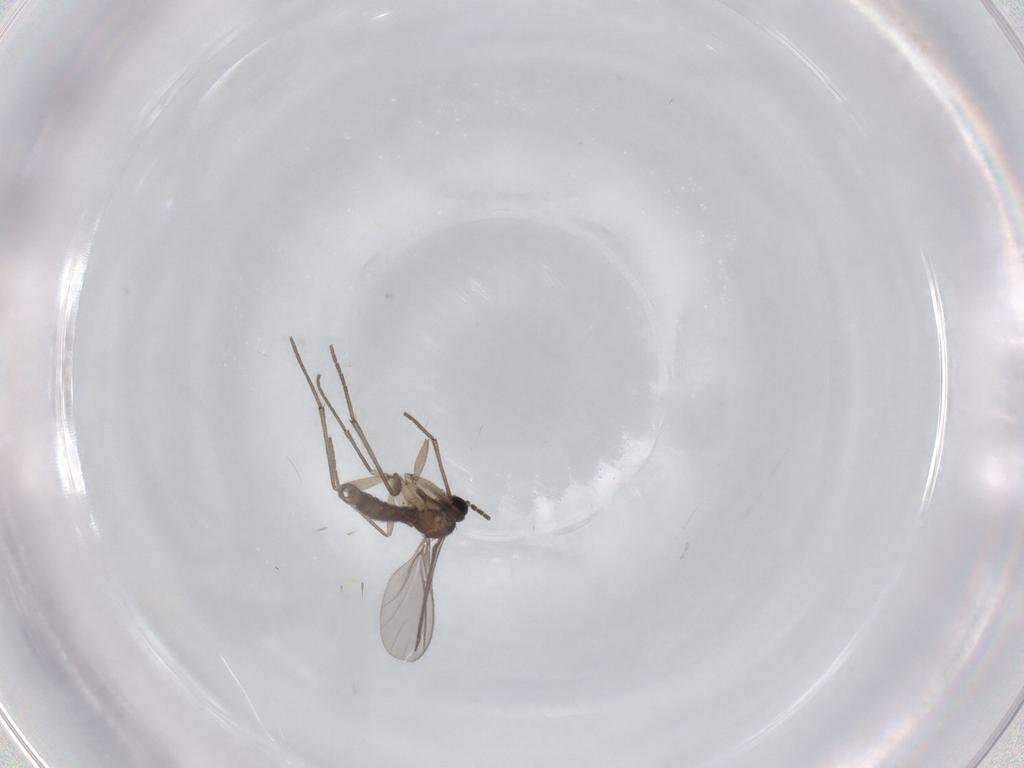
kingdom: Animalia
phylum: Arthropoda
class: Insecta
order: Diptera
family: Sciaridae
